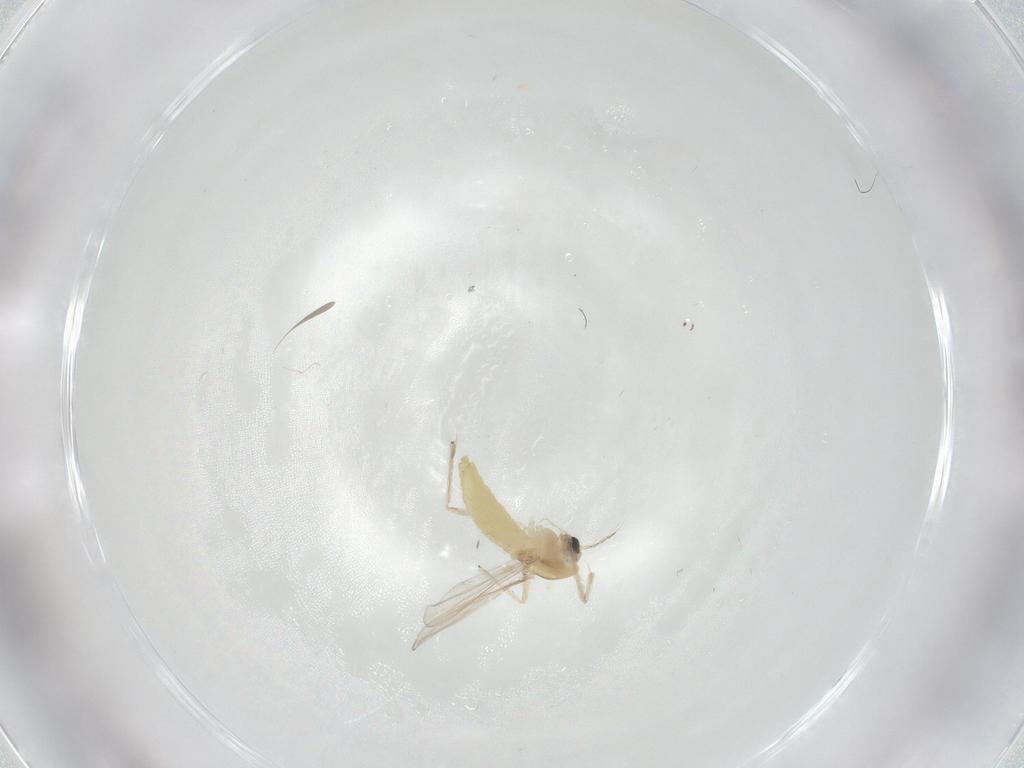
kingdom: Animalia
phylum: Arthropoda
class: Insecta
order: Diptera
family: Chironomidae
